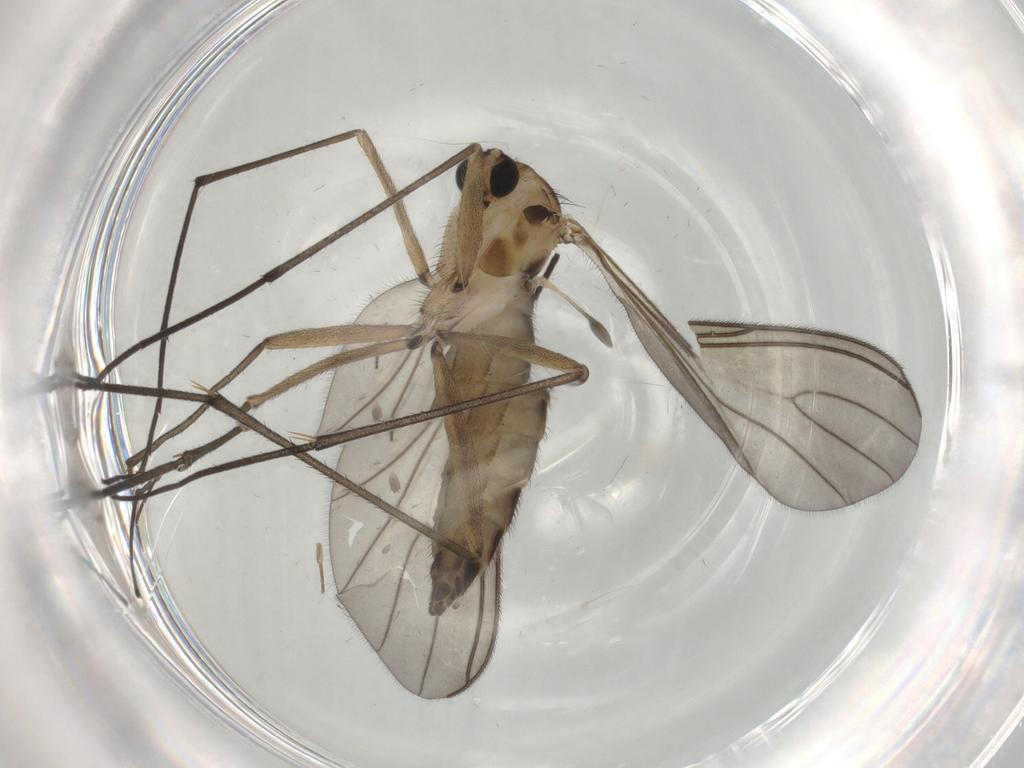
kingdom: Animalia
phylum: Arthropoda
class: Insecta
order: Diptera
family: Sciaridae
